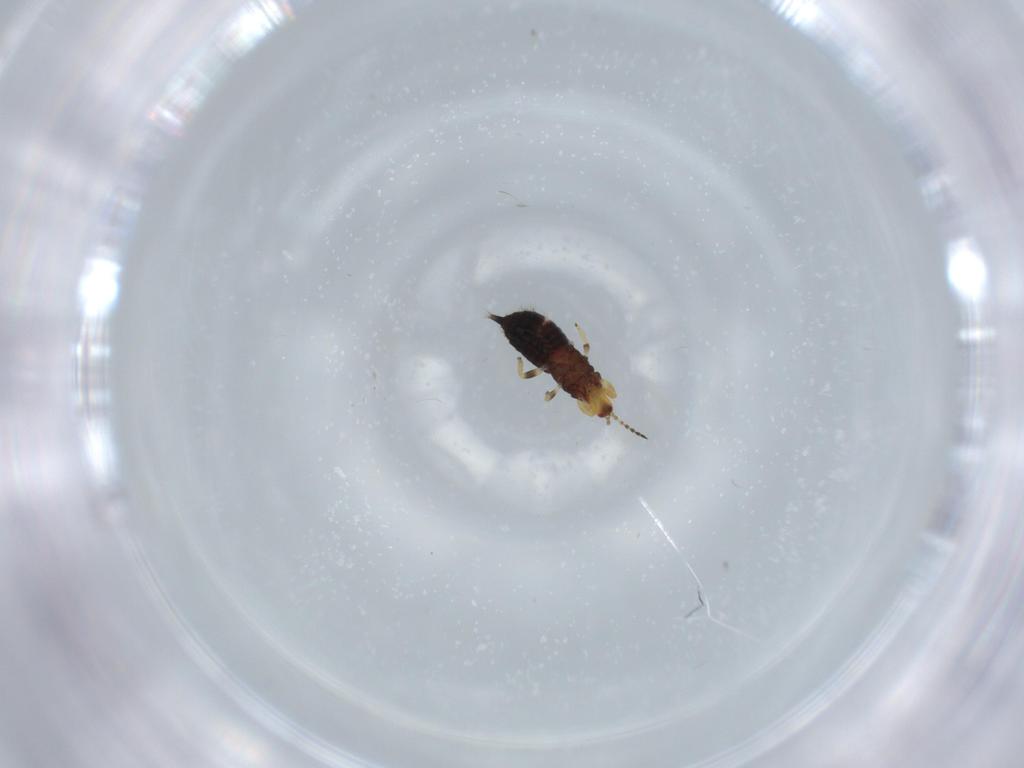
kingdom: Animalia
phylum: Arthropoda
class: Insecta
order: Thysanoptera
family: Phlaeothripidae
